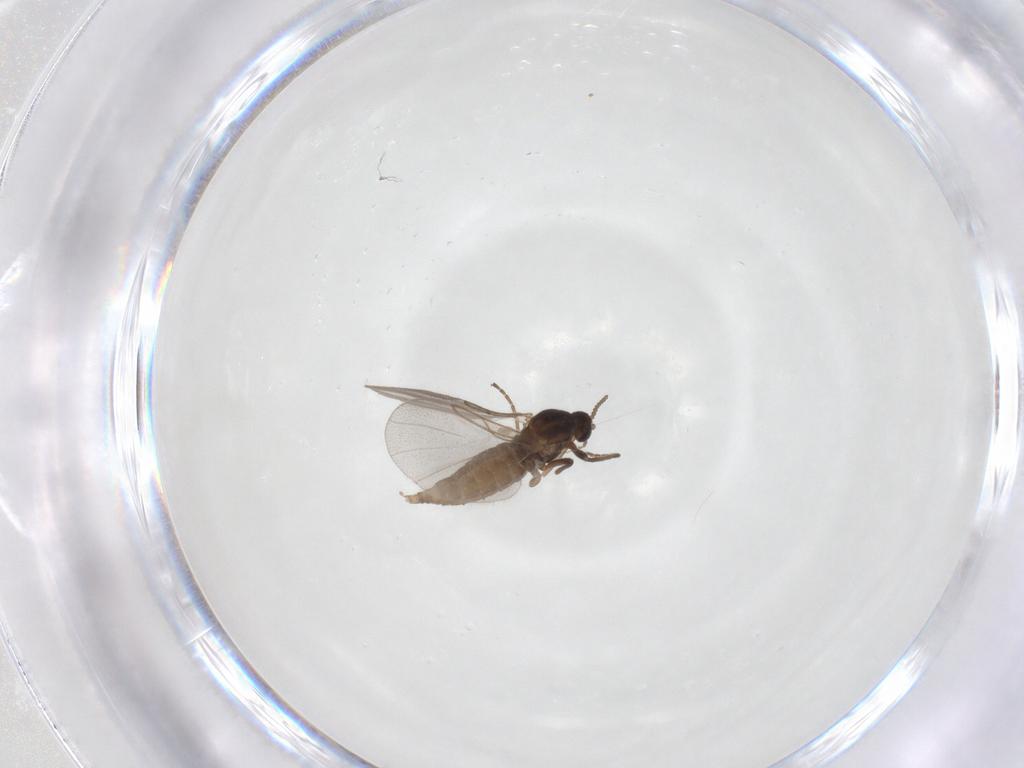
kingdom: Animalia
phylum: Arthropoda
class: Insecta
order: Diptera
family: Cecidomyiidae
